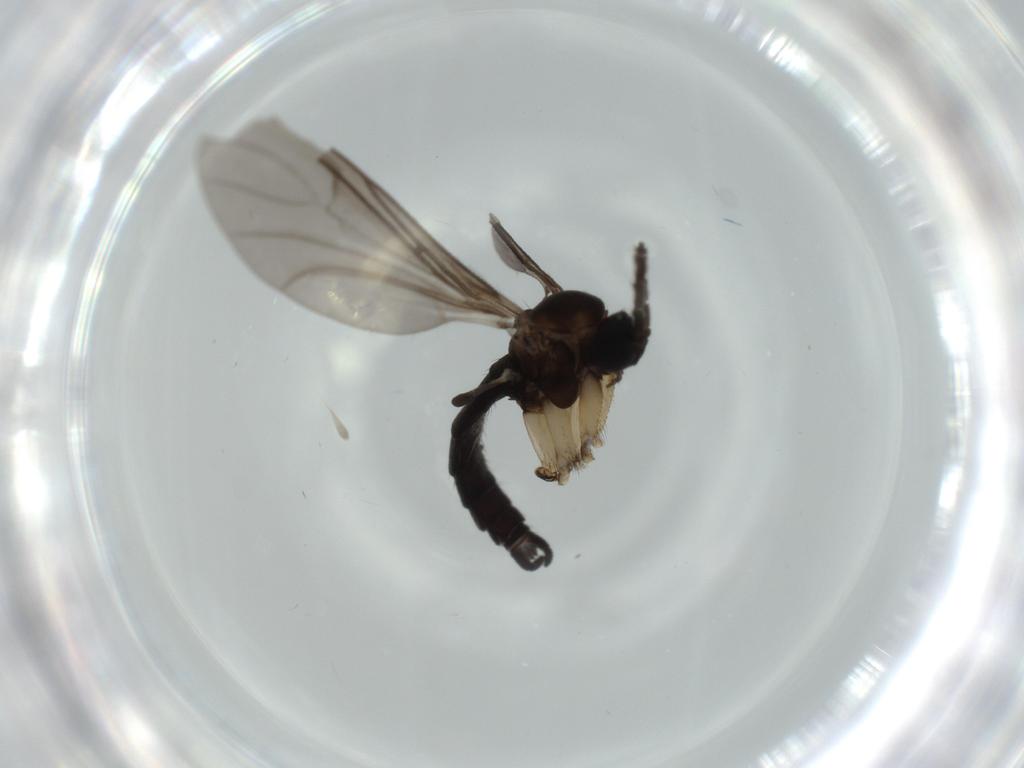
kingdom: Animalia
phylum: Arthropoda
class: Insecta
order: Diptera
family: Sciaridae
